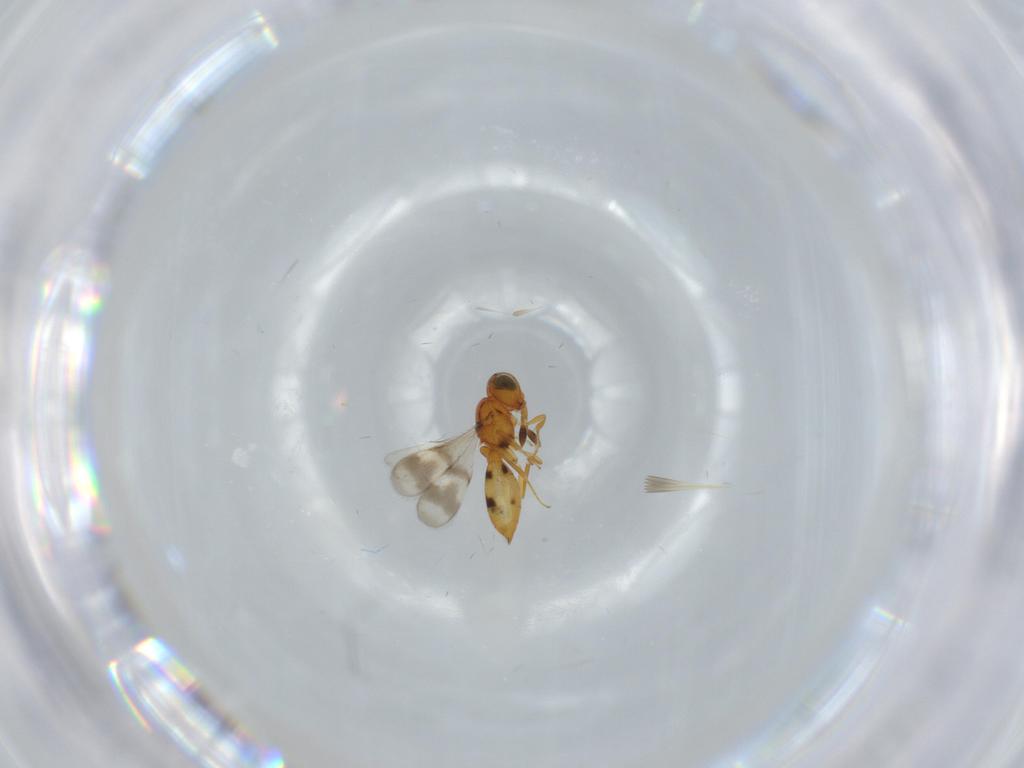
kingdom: Animalia
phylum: Arthropoda
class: Insecta
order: Hymenoptera
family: Scelionidae
